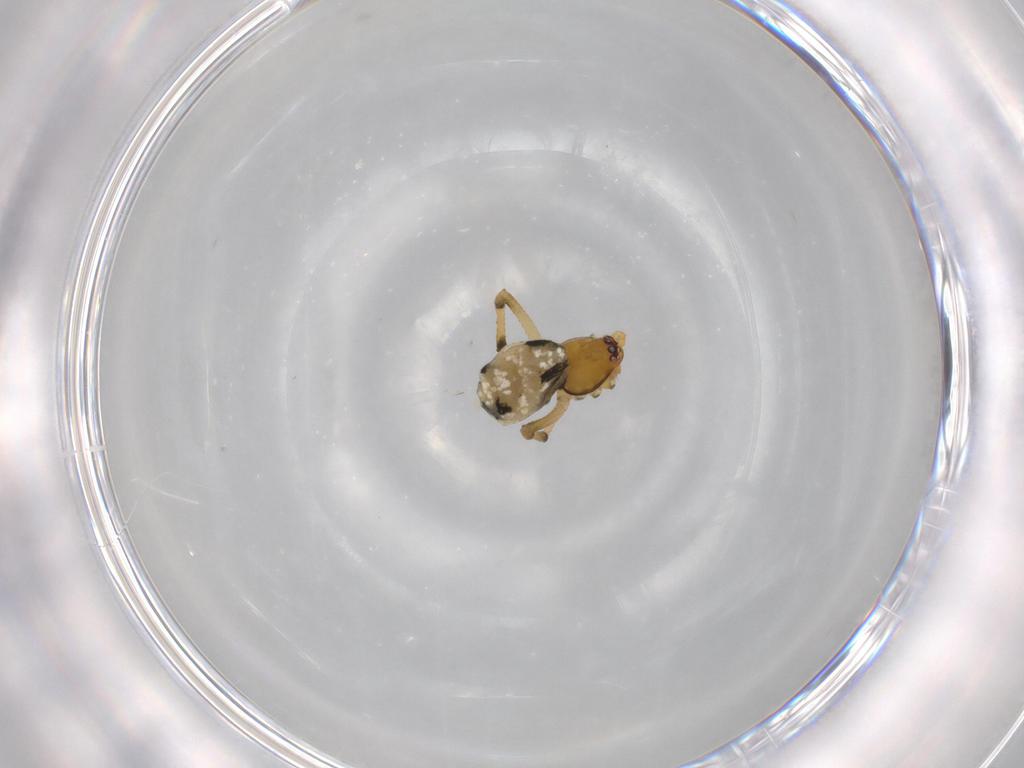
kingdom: Animalia
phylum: Arthropoda
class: Arachnida
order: Araneae
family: Theridiidae
